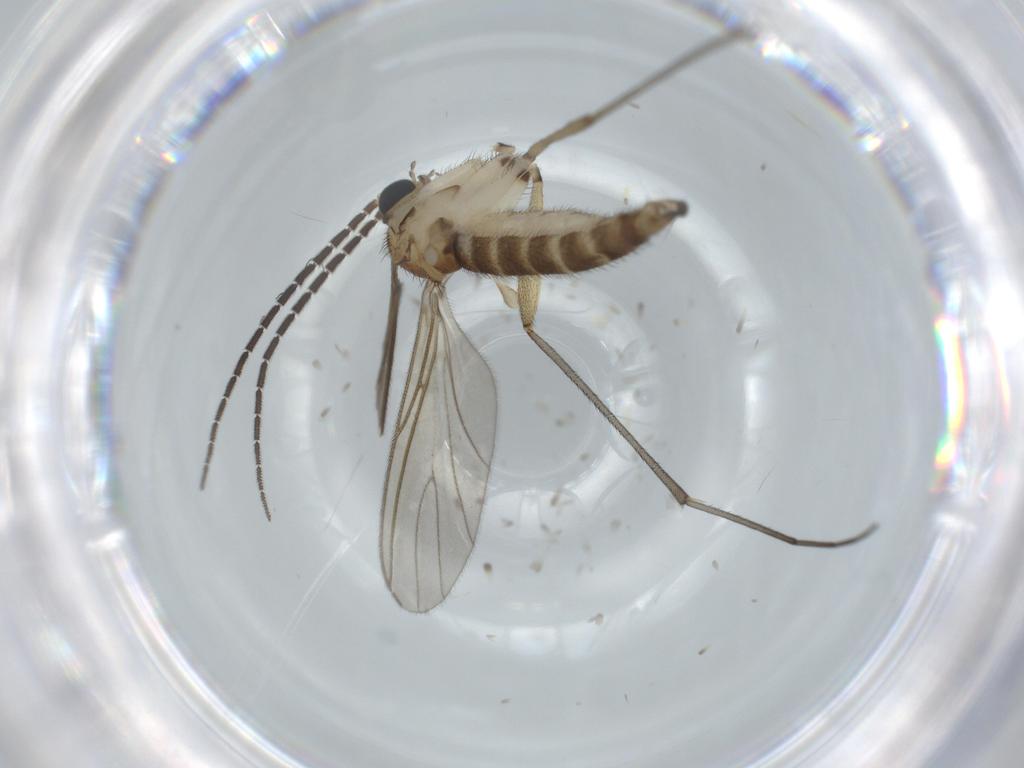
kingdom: Animalia
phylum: Arthropoda
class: Insecta
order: Diptera
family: Sciaridae
